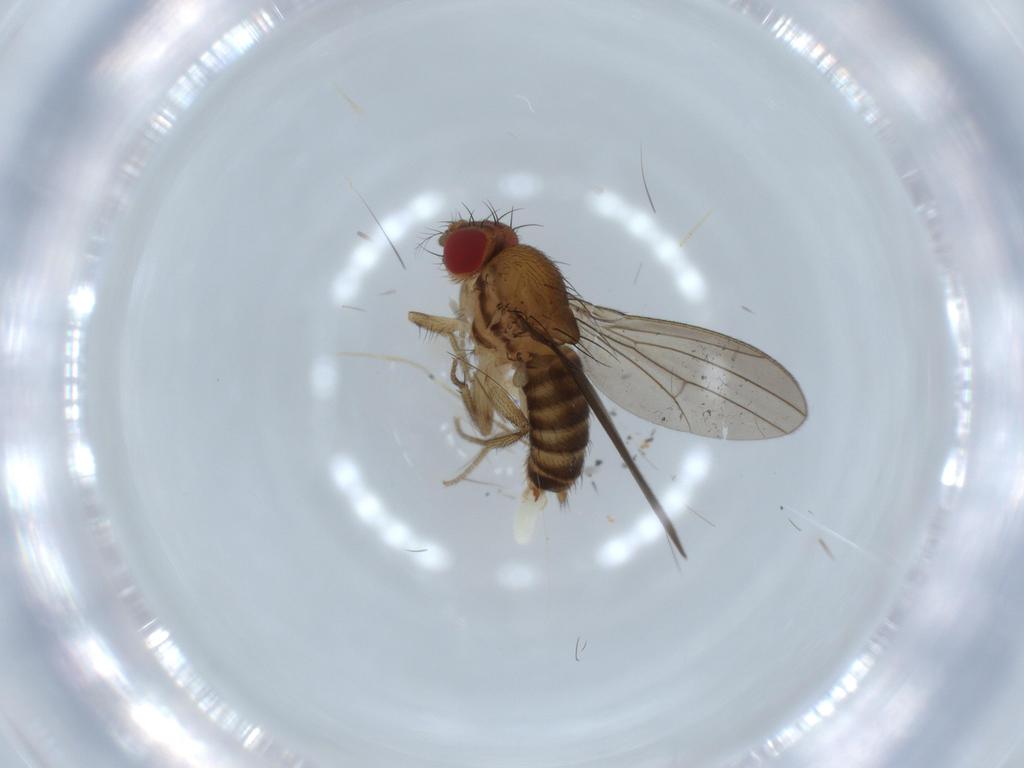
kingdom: Animalia
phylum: Arthropoda
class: Insecta
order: Diptera
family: Drosophilidae
